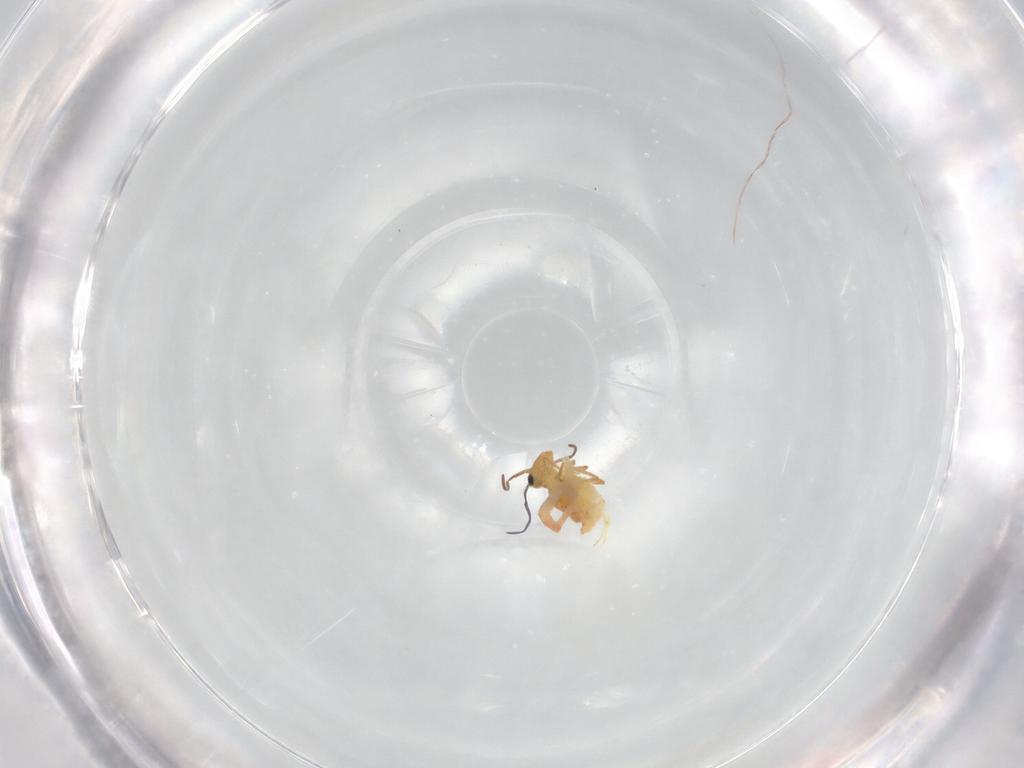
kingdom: Animalia
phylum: Arthropoda
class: Collembola
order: Symphypleona
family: Bourletiellidae
